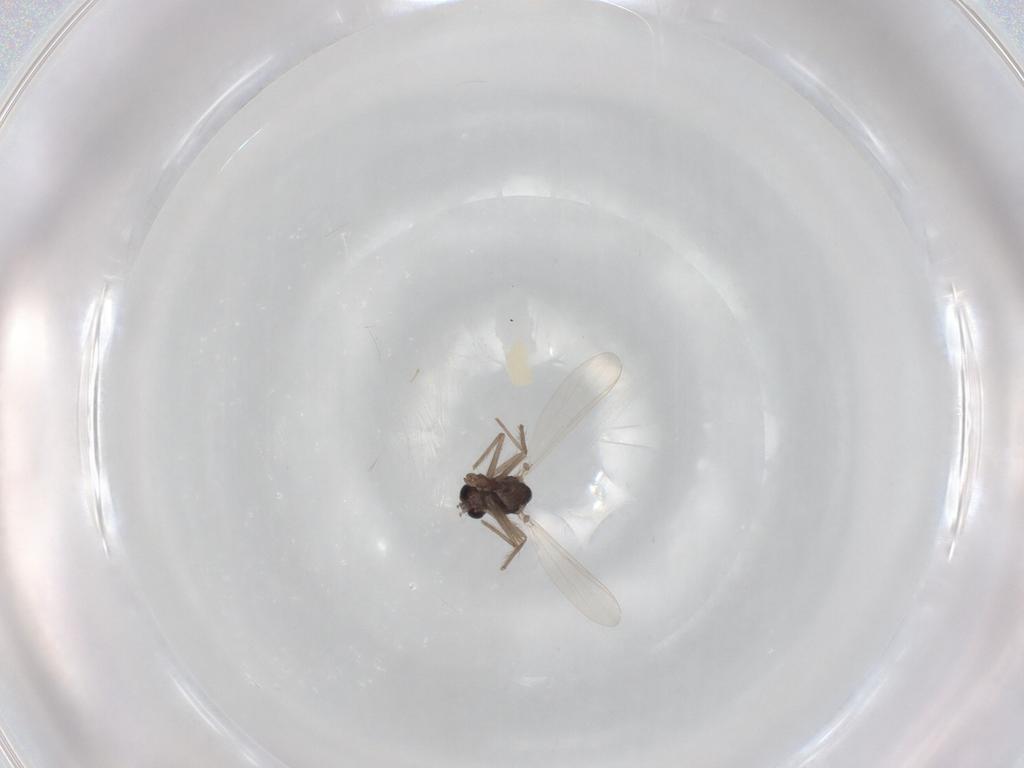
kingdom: Animalia
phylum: Arthropoda
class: Insecta
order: Diptera
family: Chironomidae
